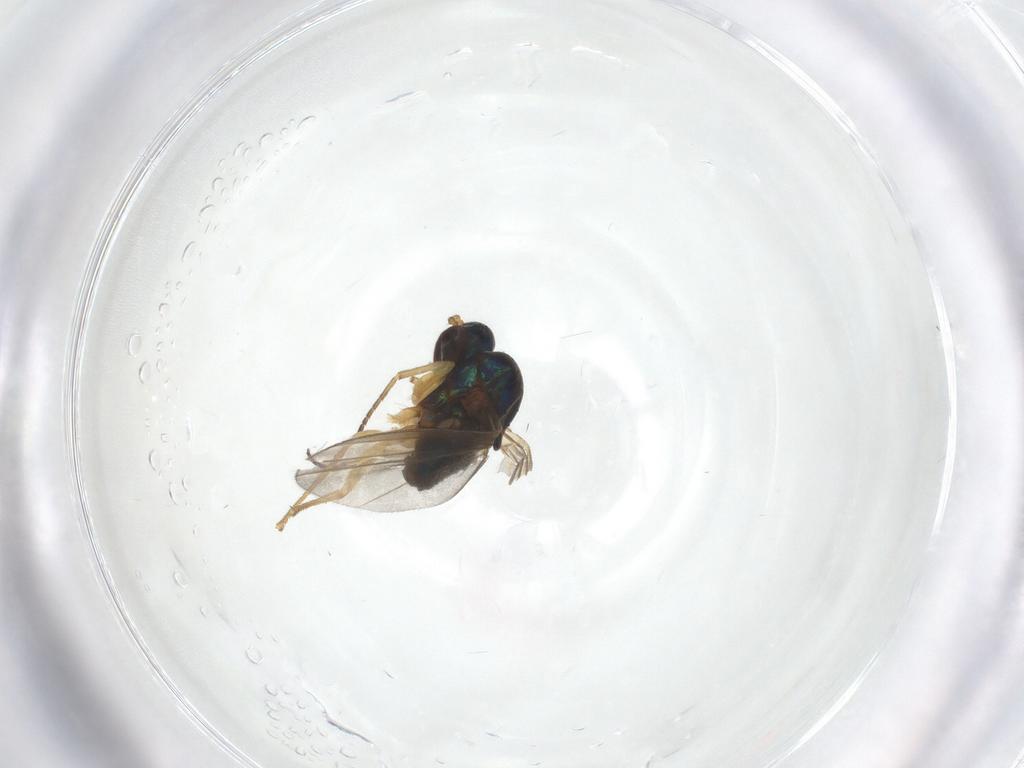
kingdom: Animalia
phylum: Arthropoda
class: Insecta
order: Diptera
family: Dolichopodidae
